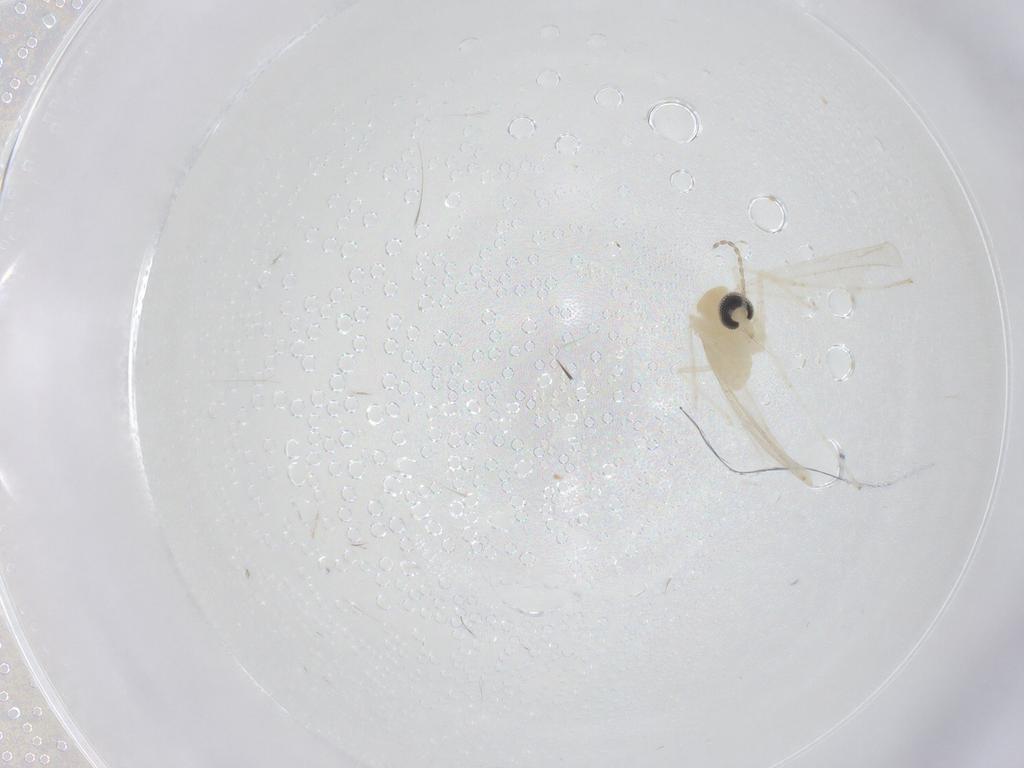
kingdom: Animalia
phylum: Arthropoda
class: Insecta
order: Diptera
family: Cecidomyiidae
